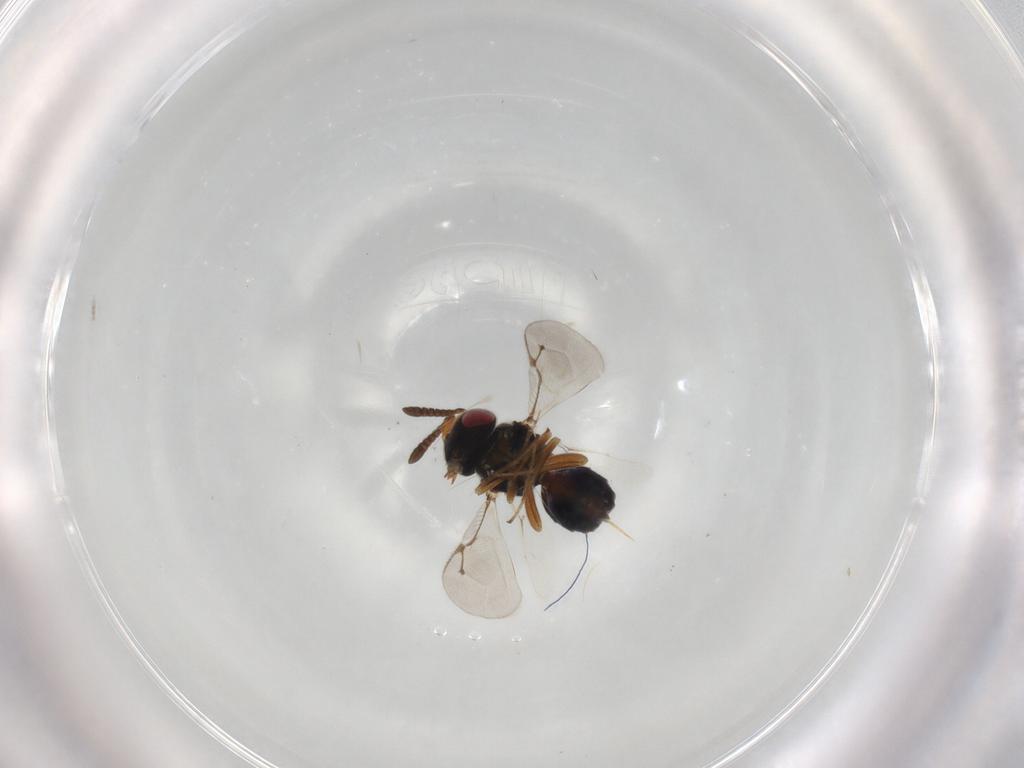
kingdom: Animalia
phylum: Arthropoda
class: Insecta
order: Hymenoptera
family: Pteromalidae
